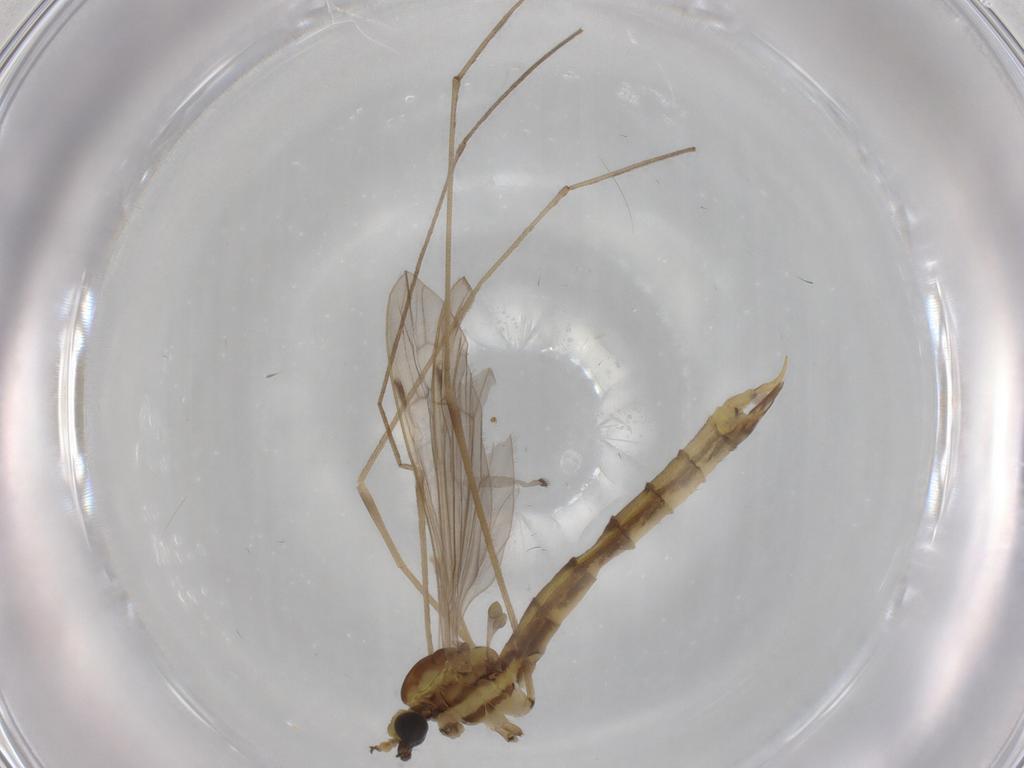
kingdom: Animalia
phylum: Arthropoda
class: Insecta
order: Diptera
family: Limoniidae
